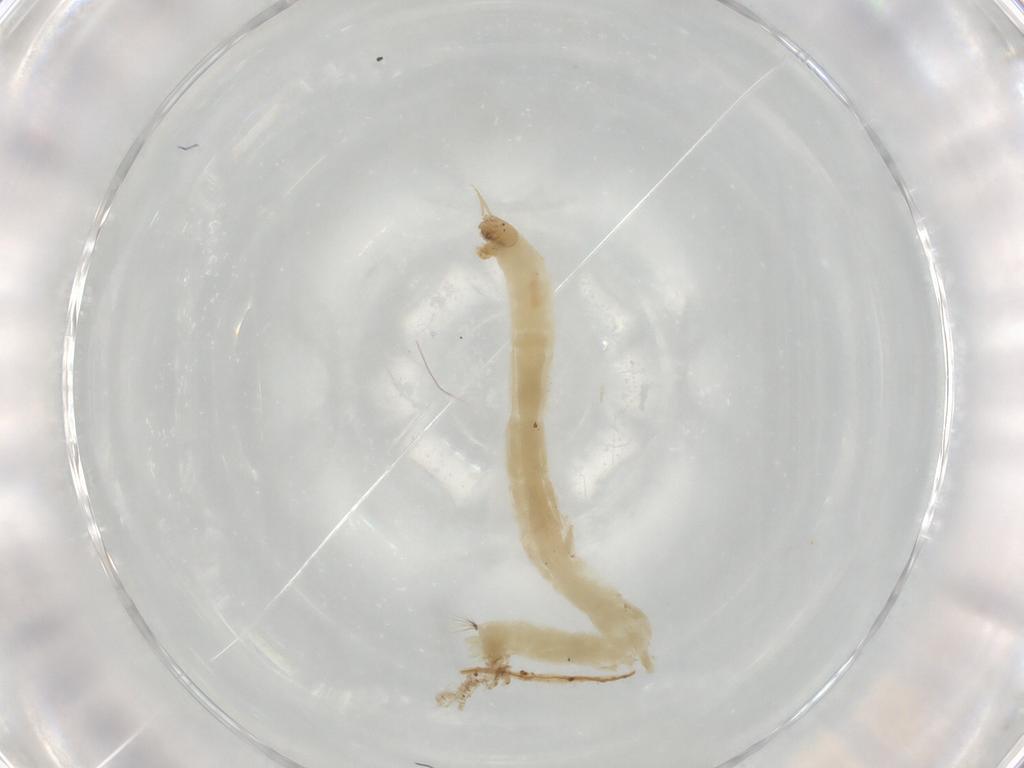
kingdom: Animalia
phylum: Arthropoda
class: Insecta
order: Diptera
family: Chironomidae
